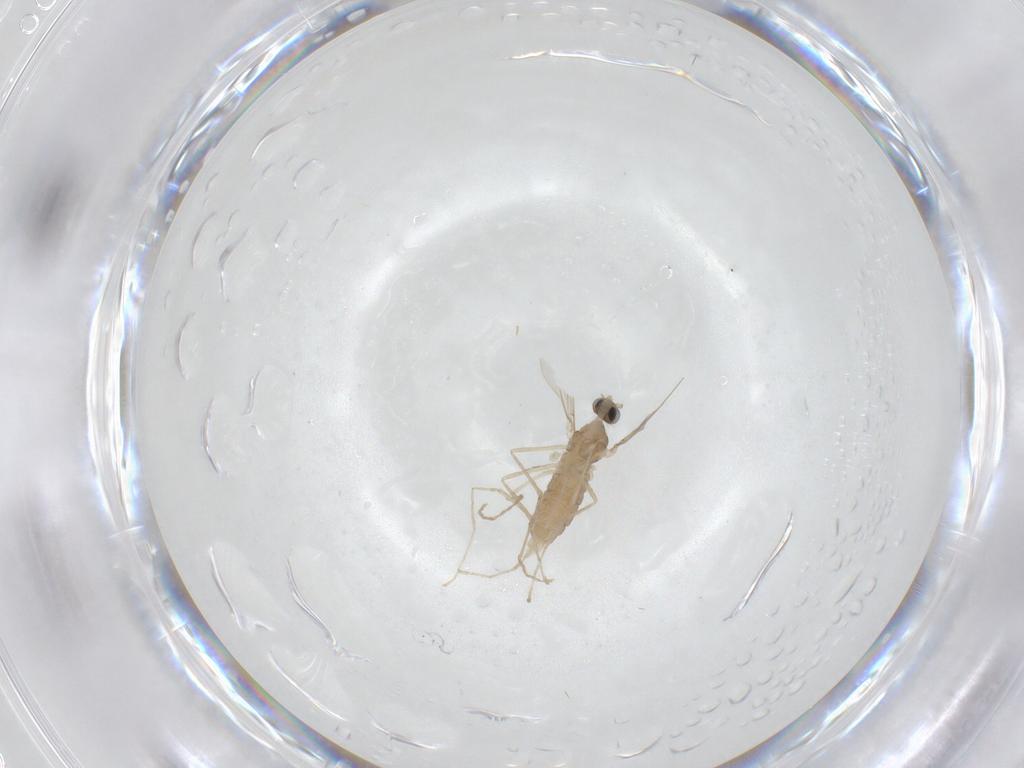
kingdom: Animalia
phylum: Arthropoda
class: Insecta
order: Diptera
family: Cecidomyiidae
